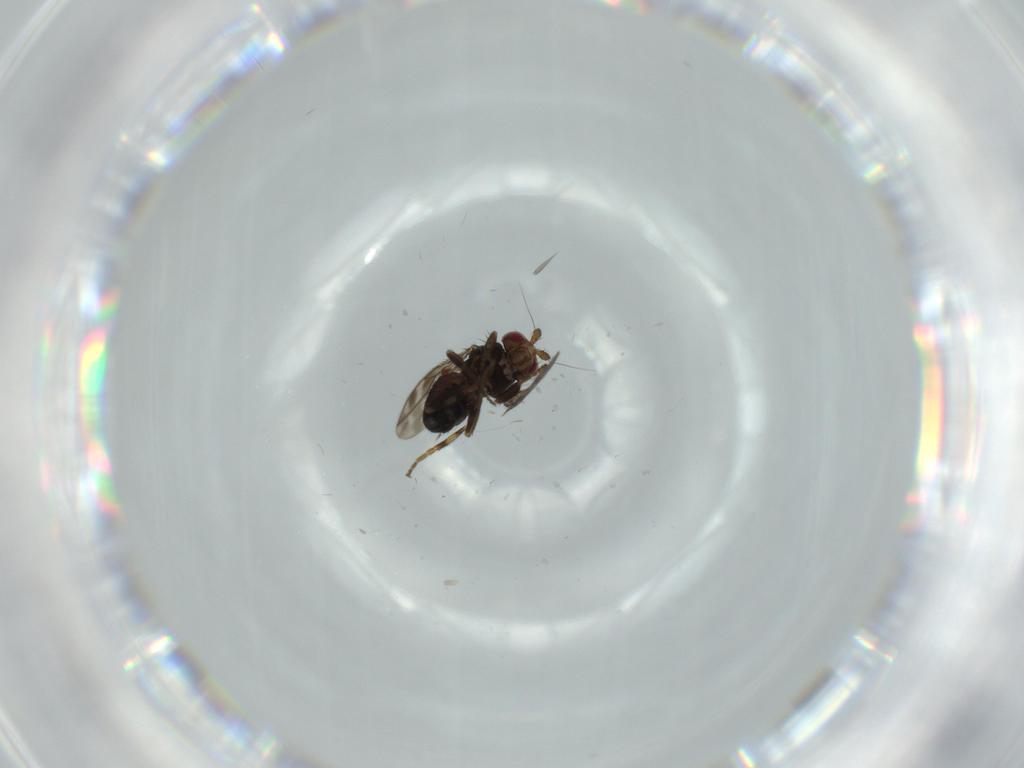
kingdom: Animalia
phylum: Arthropoda
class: Insecta
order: Diptera
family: Sphaeroceridae
